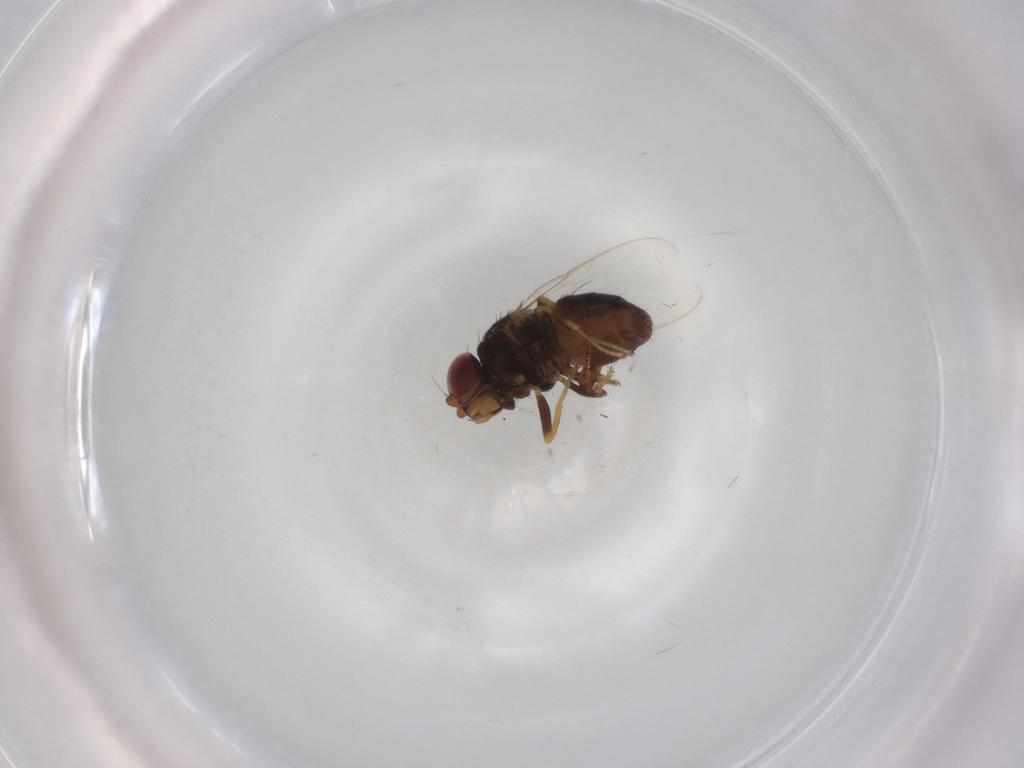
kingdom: Animalia
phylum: Arthropoda
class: Insecta
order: Diptera
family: Chloropidae
